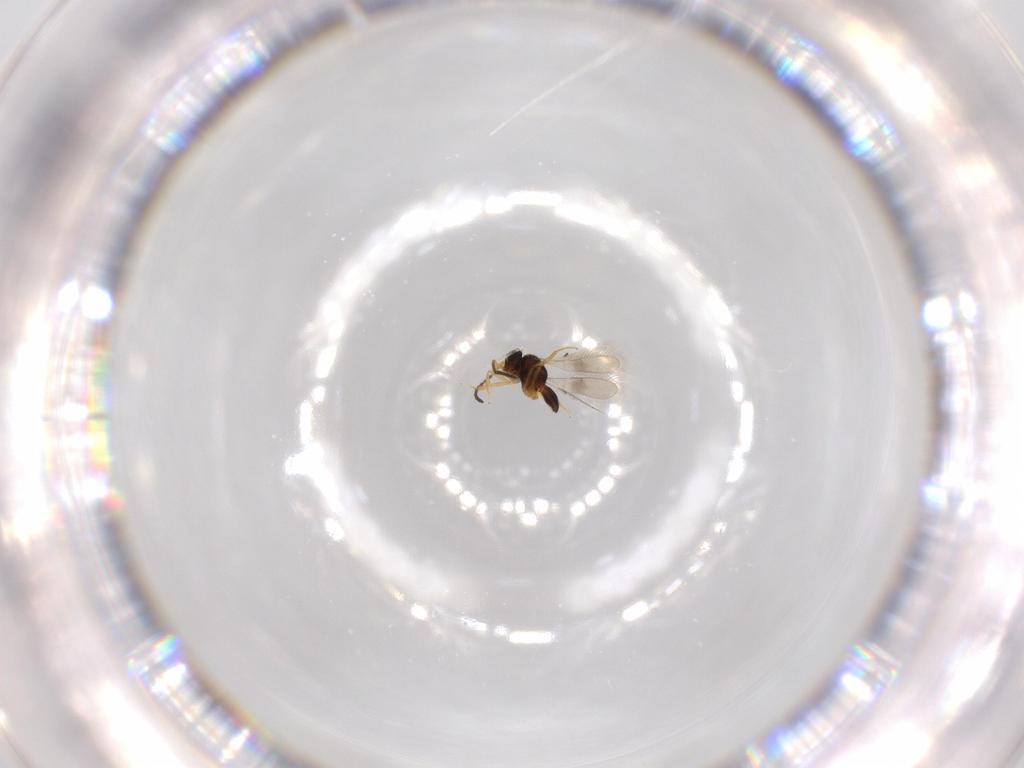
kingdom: Animalia
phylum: Arthropoda
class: Insecta
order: Hymenoptera
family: Scelionidae
